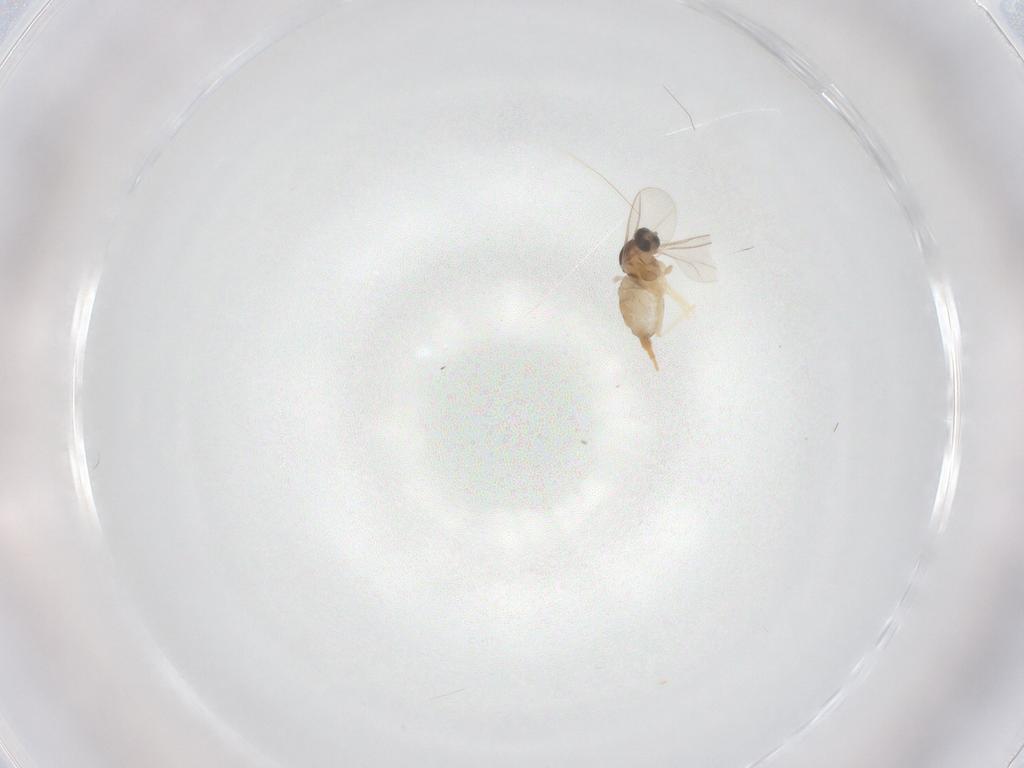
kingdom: Animalia
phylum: Arthropoda
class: Insecta
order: Diptera
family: Cecidomyiidae
